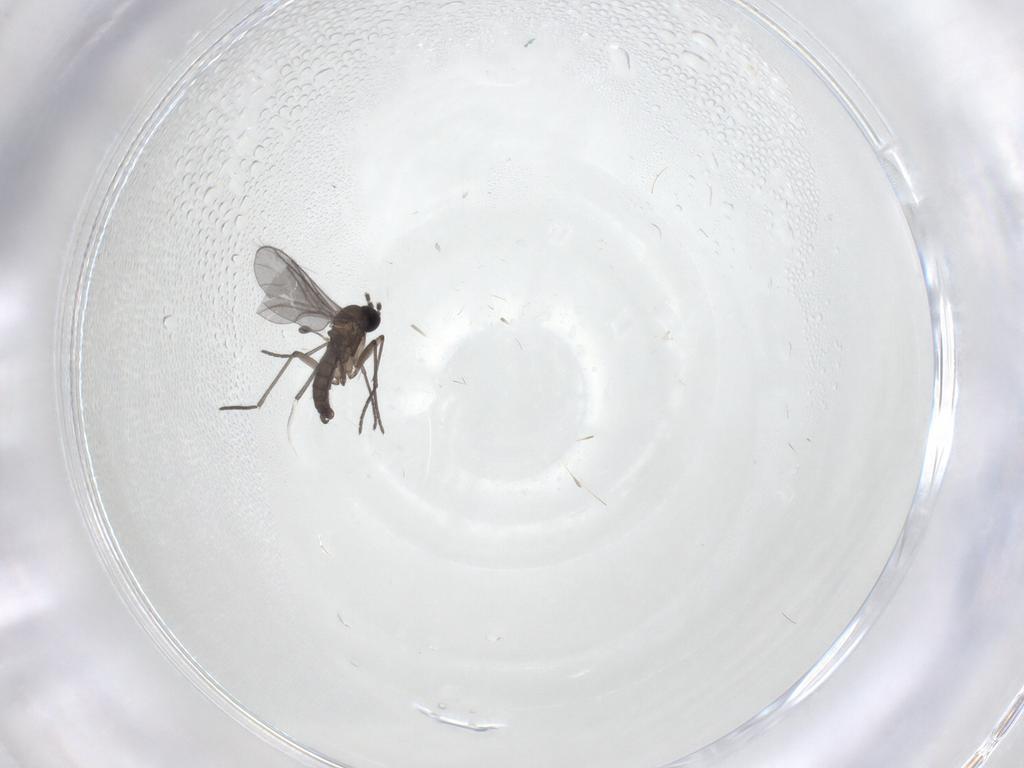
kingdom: Animalia
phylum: Arthropoda
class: Insecta
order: Diptera
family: Sciaridae
